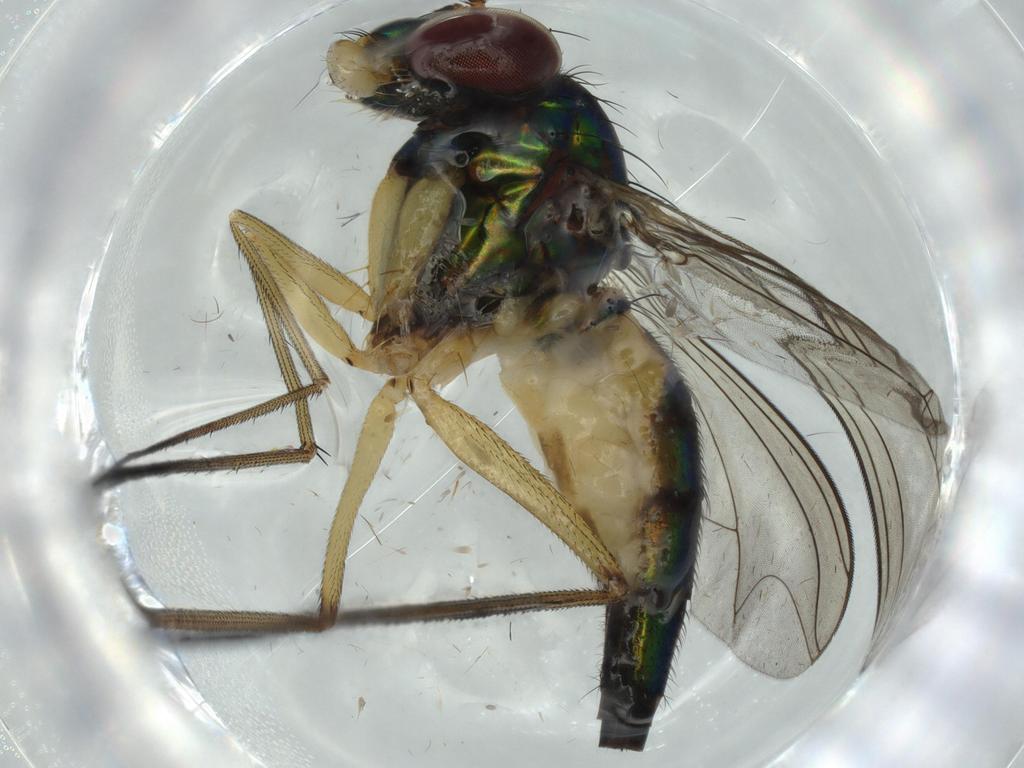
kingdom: Animalia
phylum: Arthropoda
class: Insecta
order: Diptera
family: Dolichopodidae
